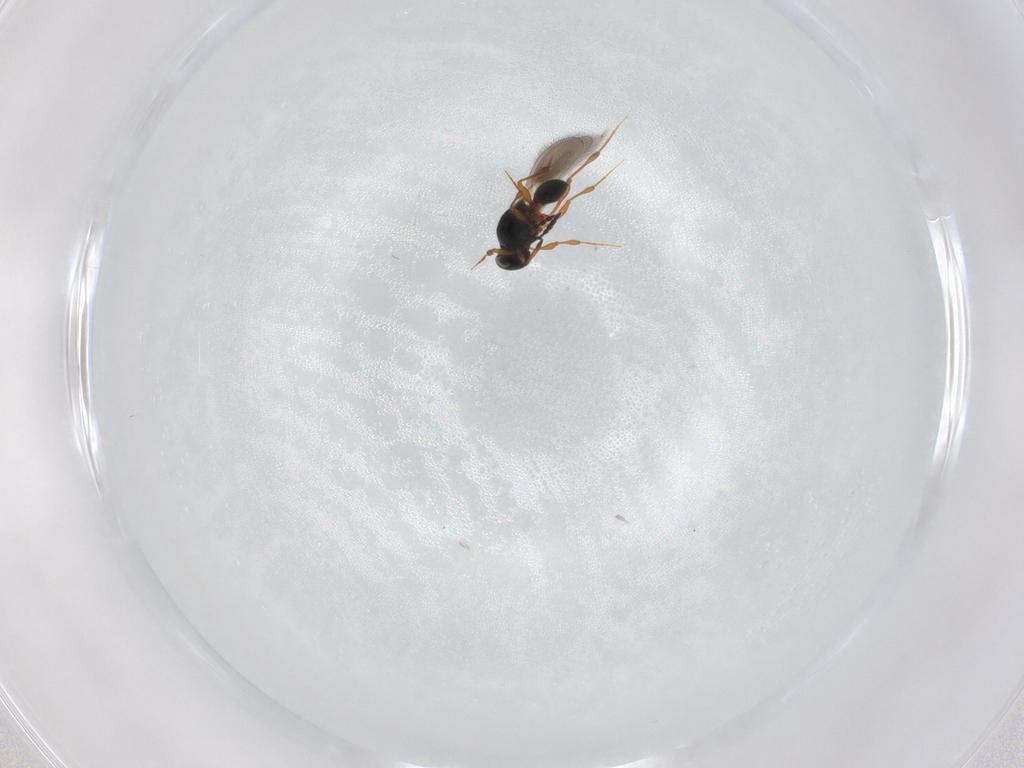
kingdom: Animalia
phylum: Arthropoda
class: Insecta
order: Hymenoptera
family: Platygastridae
